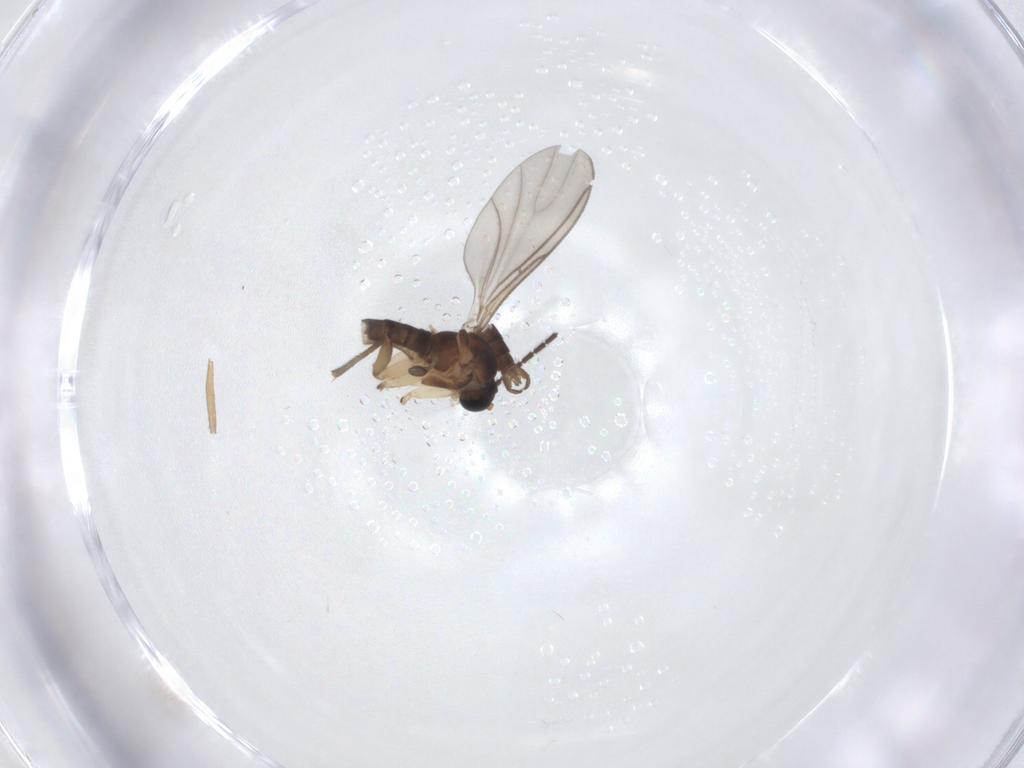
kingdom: Animalia
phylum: Arthropoda
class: Insecta
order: Diptera
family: Sciaridae
